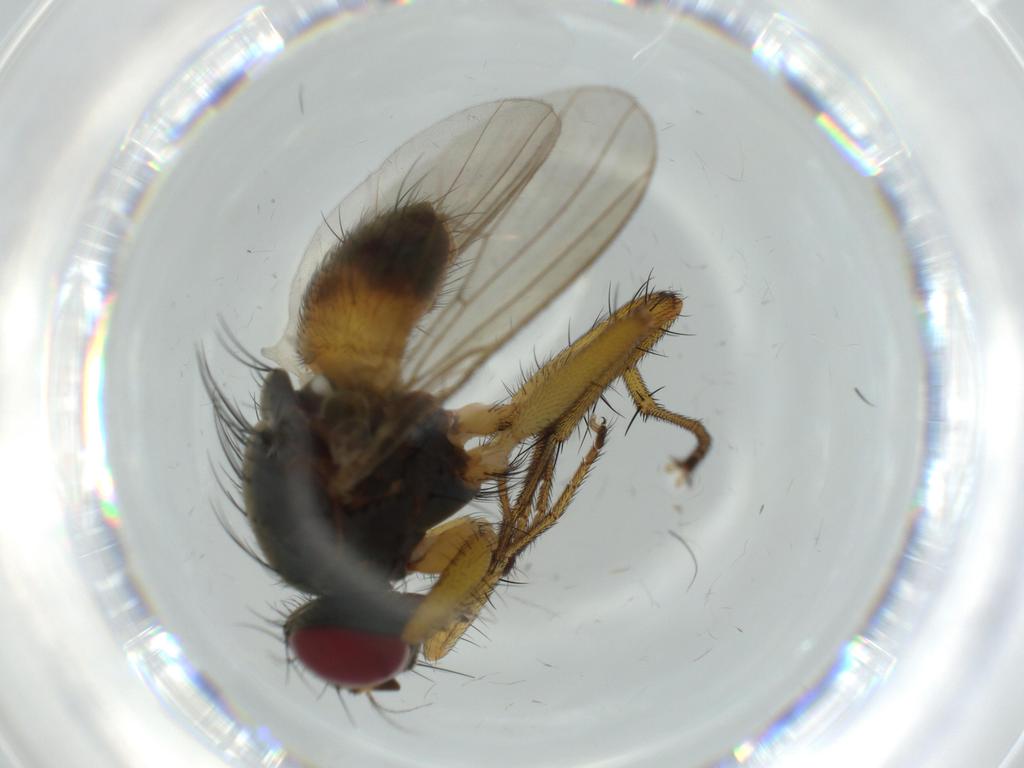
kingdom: Animalia
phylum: Arthropoda
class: Insecta
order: Diptera
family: Muscidae
